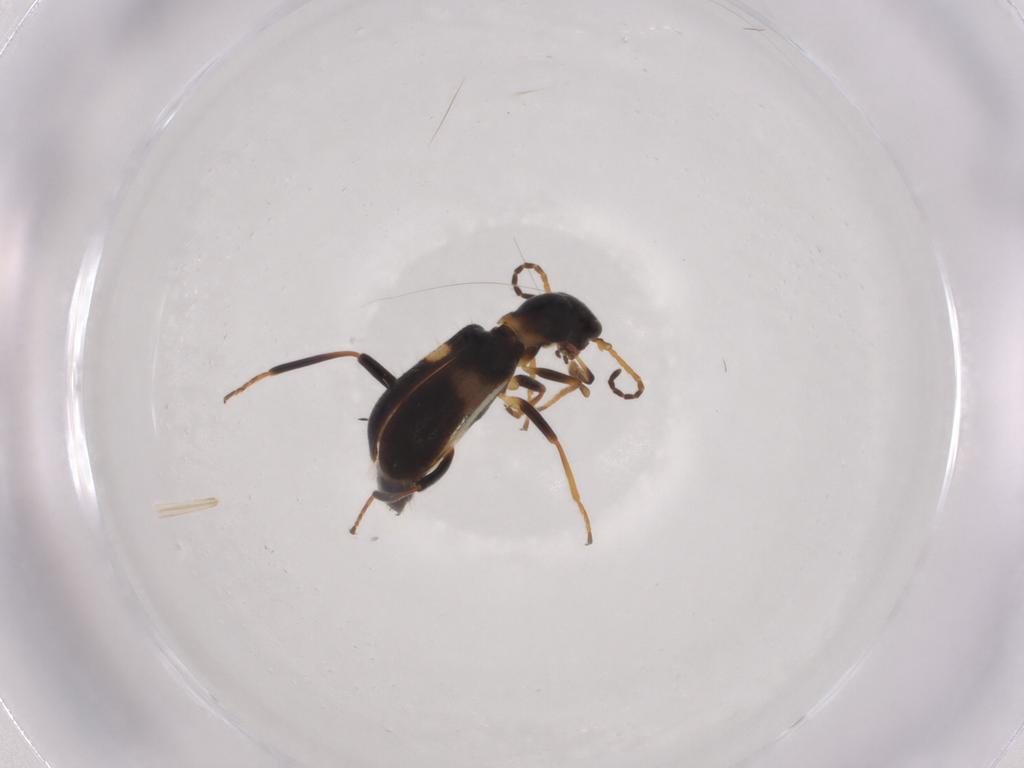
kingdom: Animalia
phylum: Arthropoda
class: Insecta
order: Coleoptera
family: Melyridae
